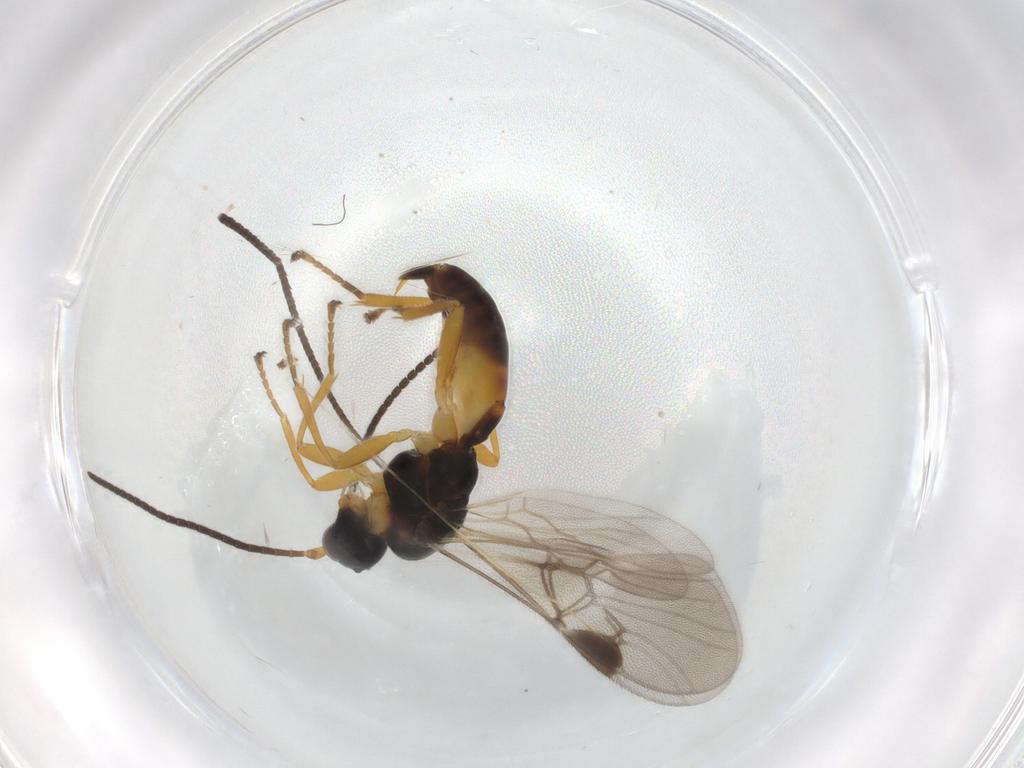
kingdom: Animalia
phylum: Arthropoda
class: Insecta
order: Hymenoptera
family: Braconidae
